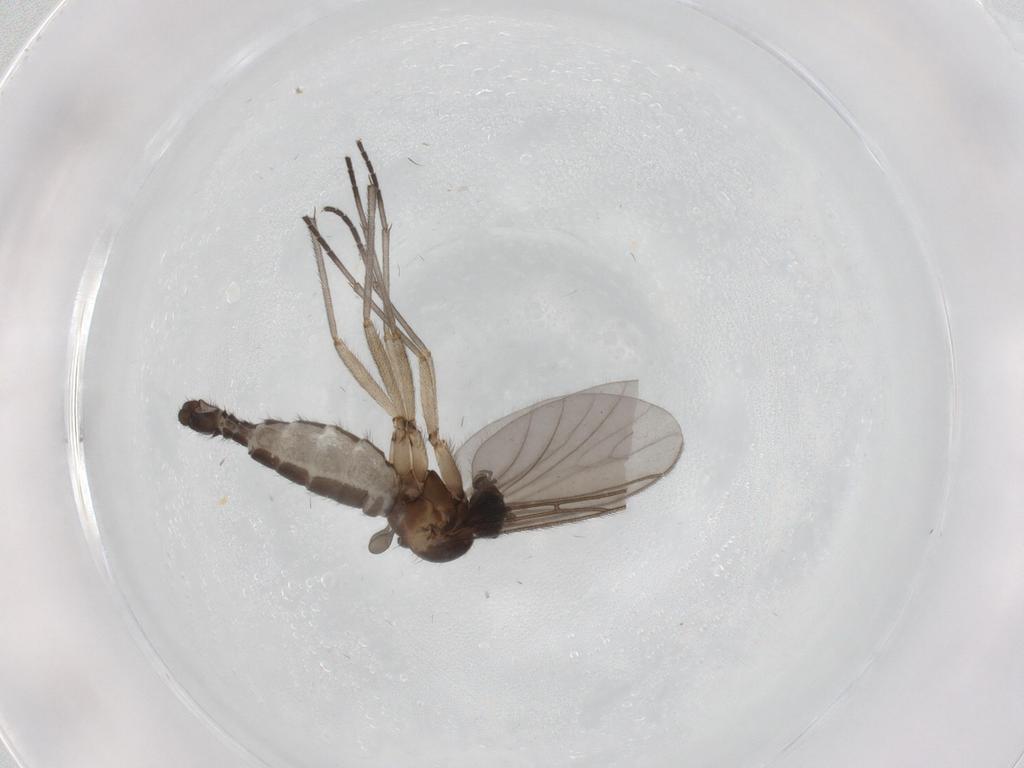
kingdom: Animalia
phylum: Arthropoda
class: Insecta
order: Diptera
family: Sciaridae
